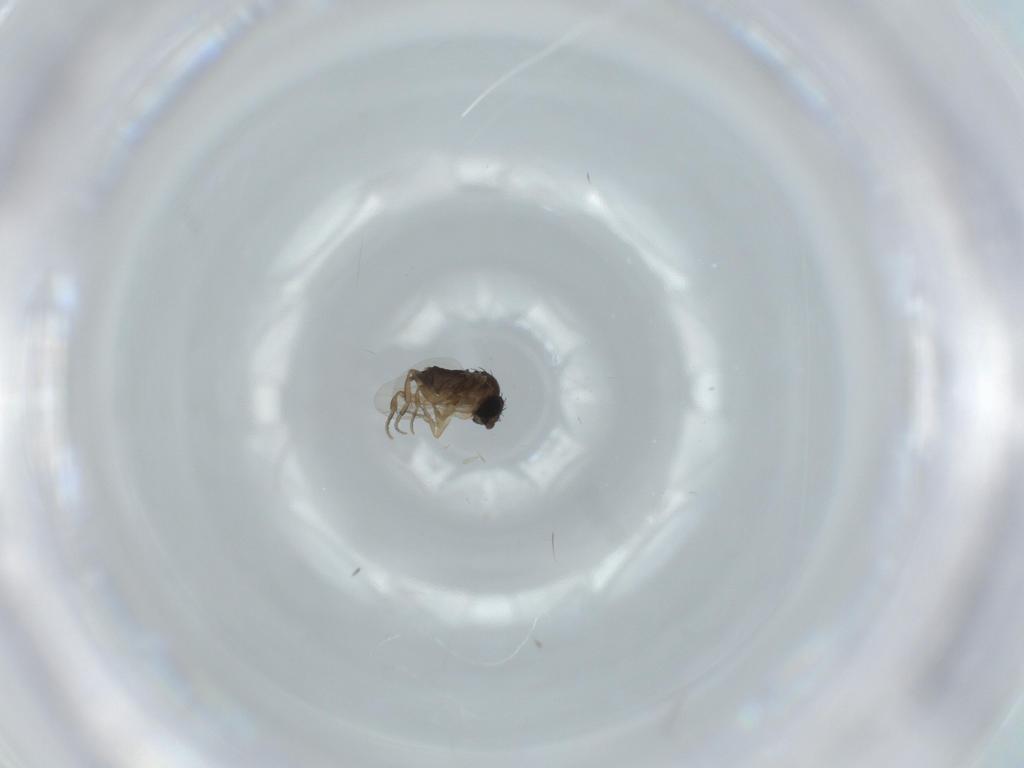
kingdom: Animalia
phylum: Arthropoda
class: Insecta
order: Diptera
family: Phoridae
